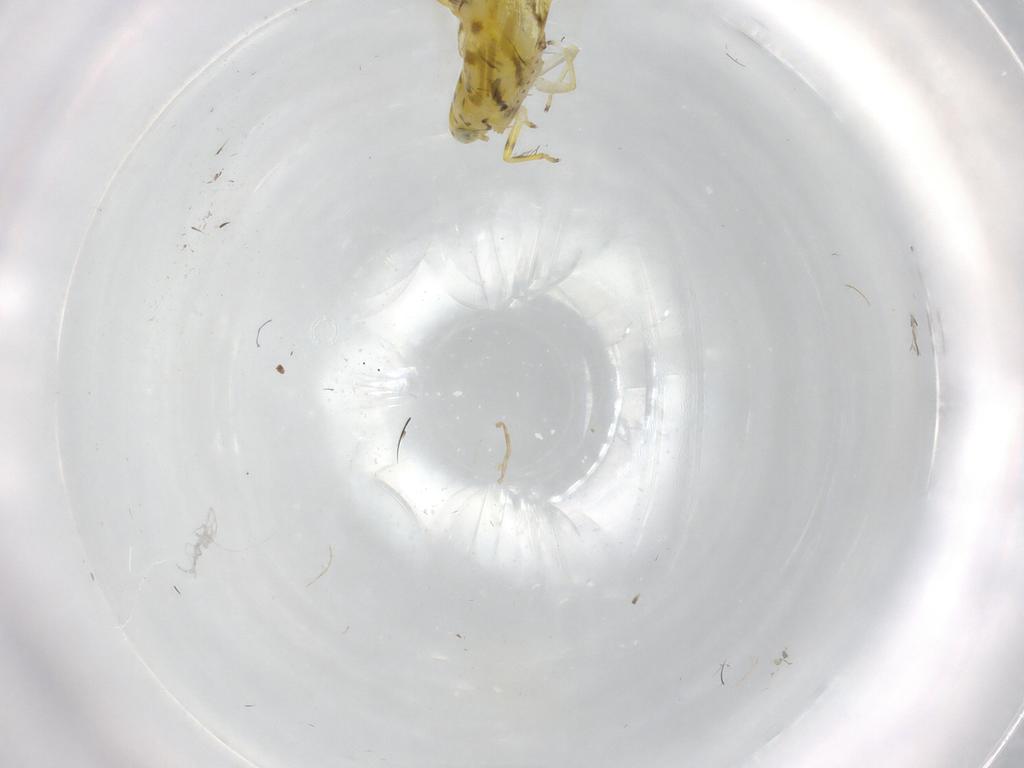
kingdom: Animalia
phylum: Arthropoda
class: Insecta
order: Hemiptera
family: Cicadellidae
